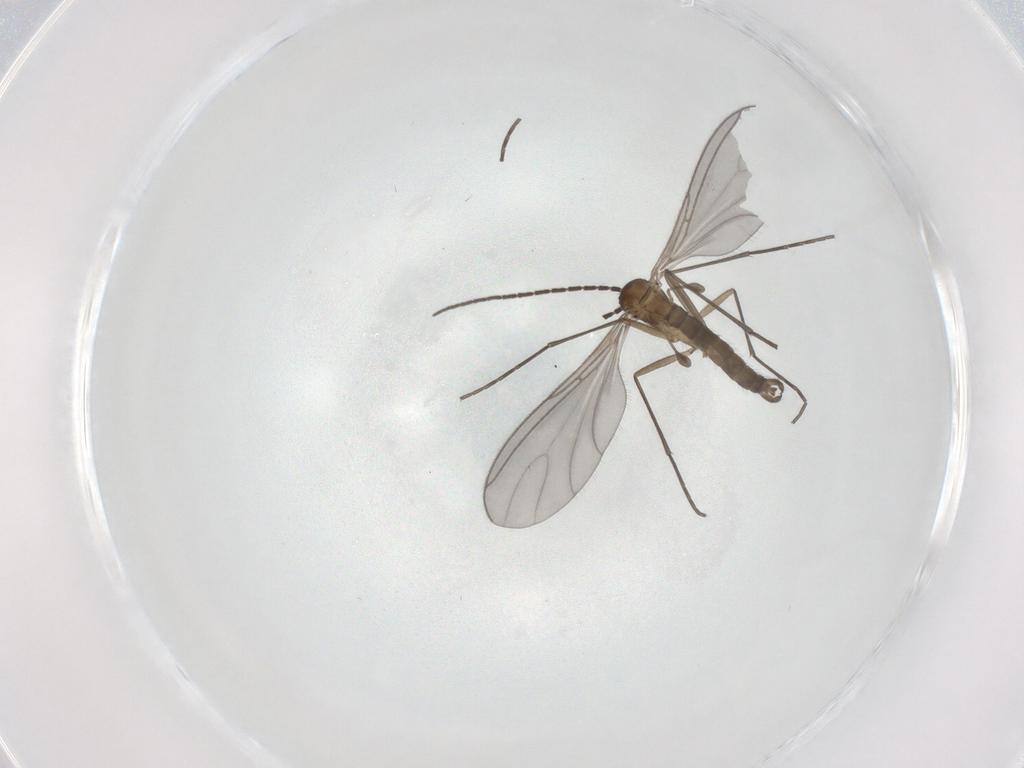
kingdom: Animalia
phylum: Arthropoda
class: Insecta
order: Diptera
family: Sciaridae
